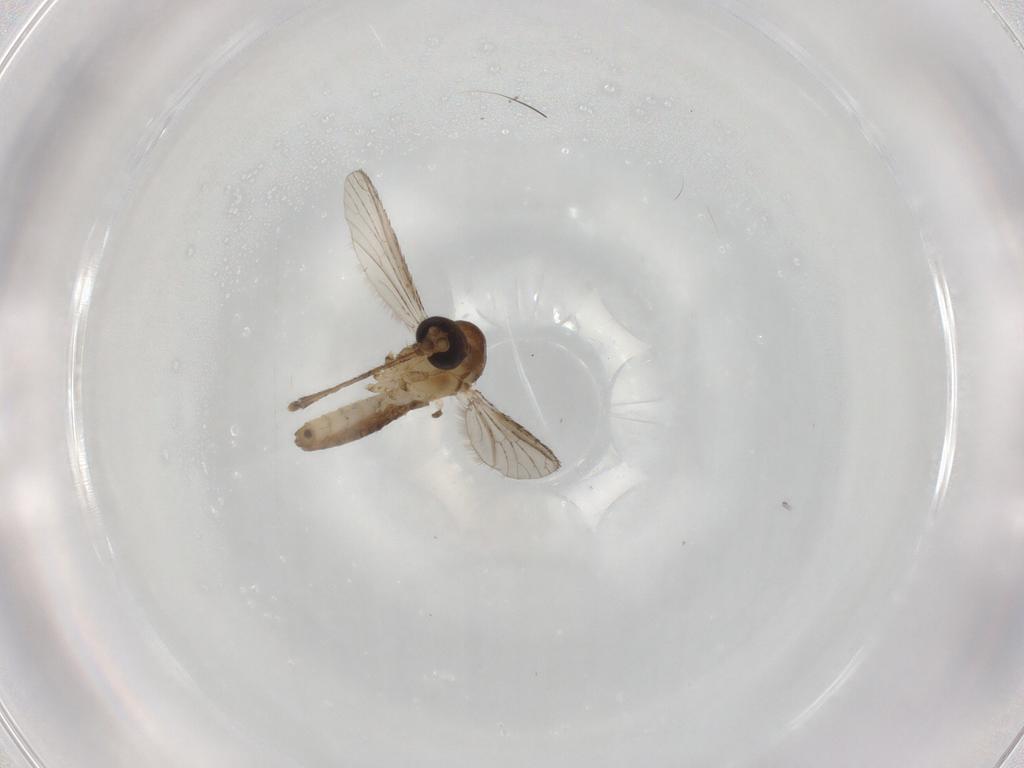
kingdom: Animalia
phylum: Arthropoda
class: Insecta
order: Diptera
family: Culicidae
